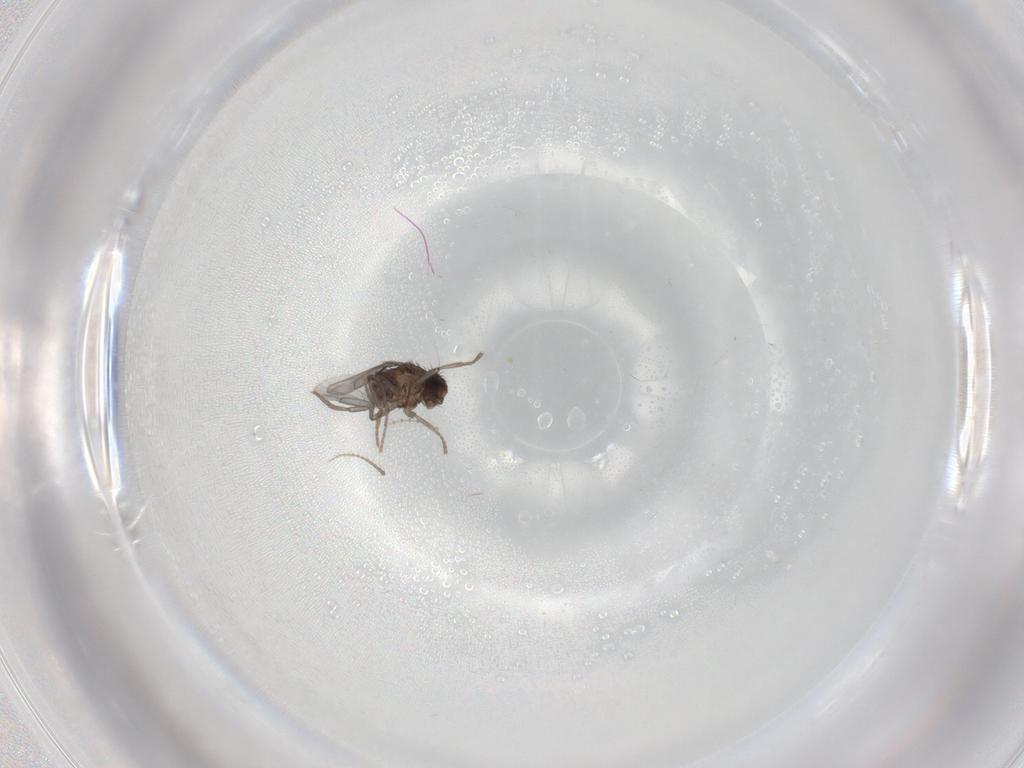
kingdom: Animalia
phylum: Arthropoda
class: Insecta
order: Diptera
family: Sphaeroceridae
